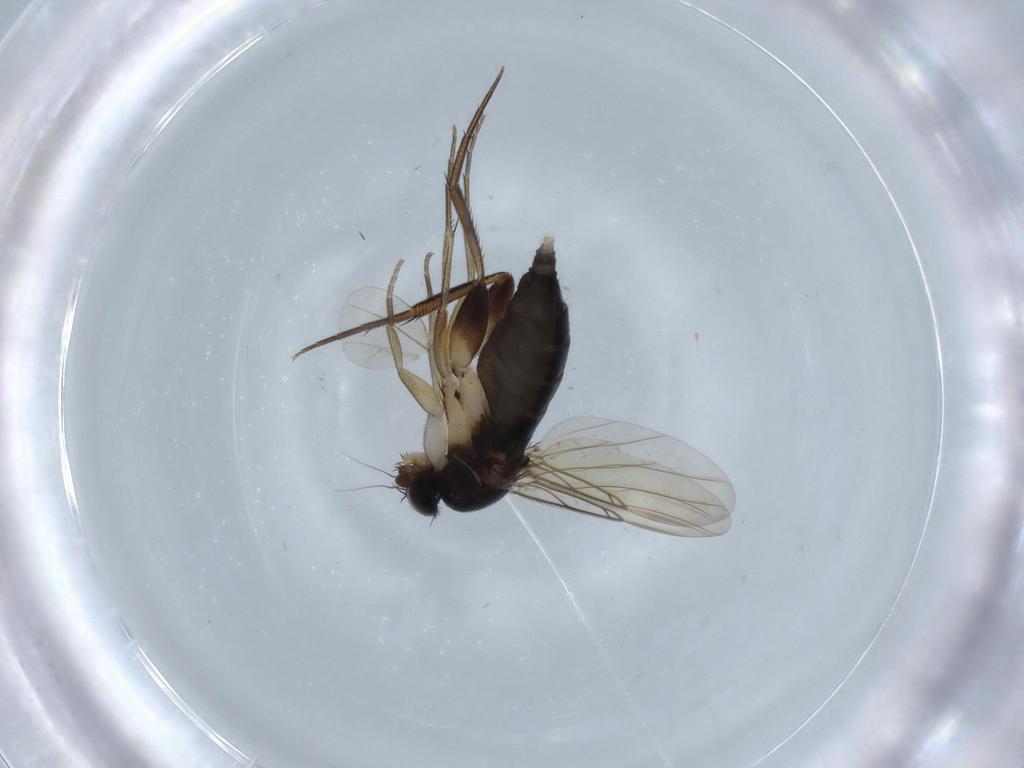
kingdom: Animalia
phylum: Arthropoda
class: Insecta
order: Diptera
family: Phoridae
